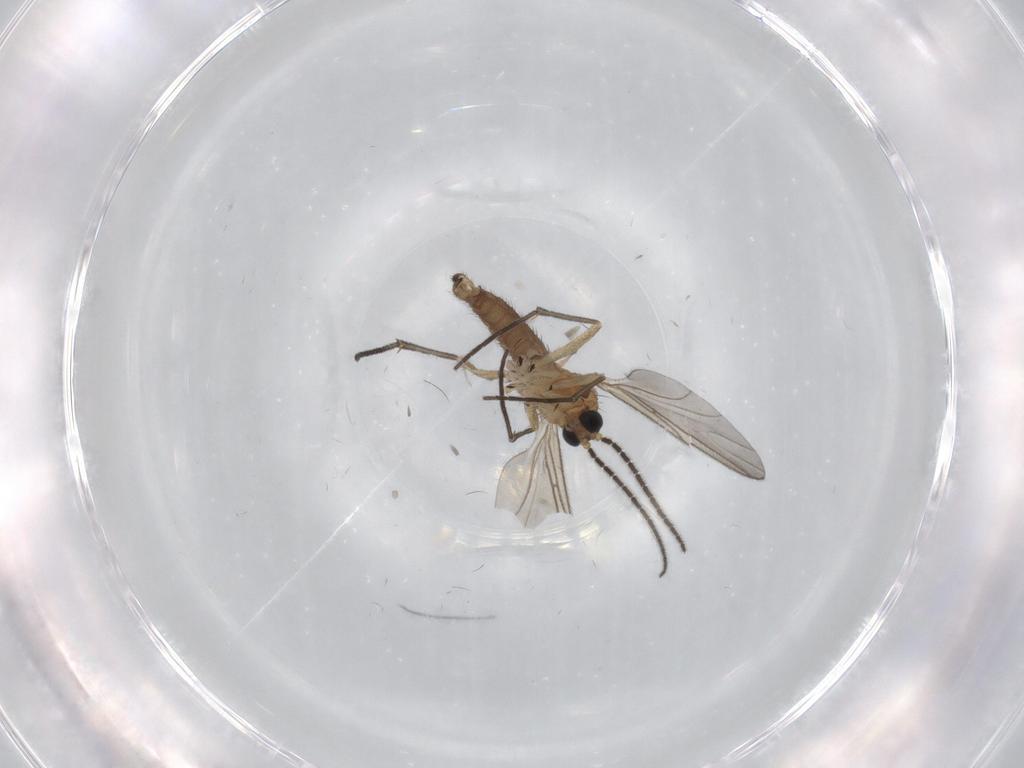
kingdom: Animalia
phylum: Arthropoda
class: Insecta
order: Diptera
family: Sciaridae
